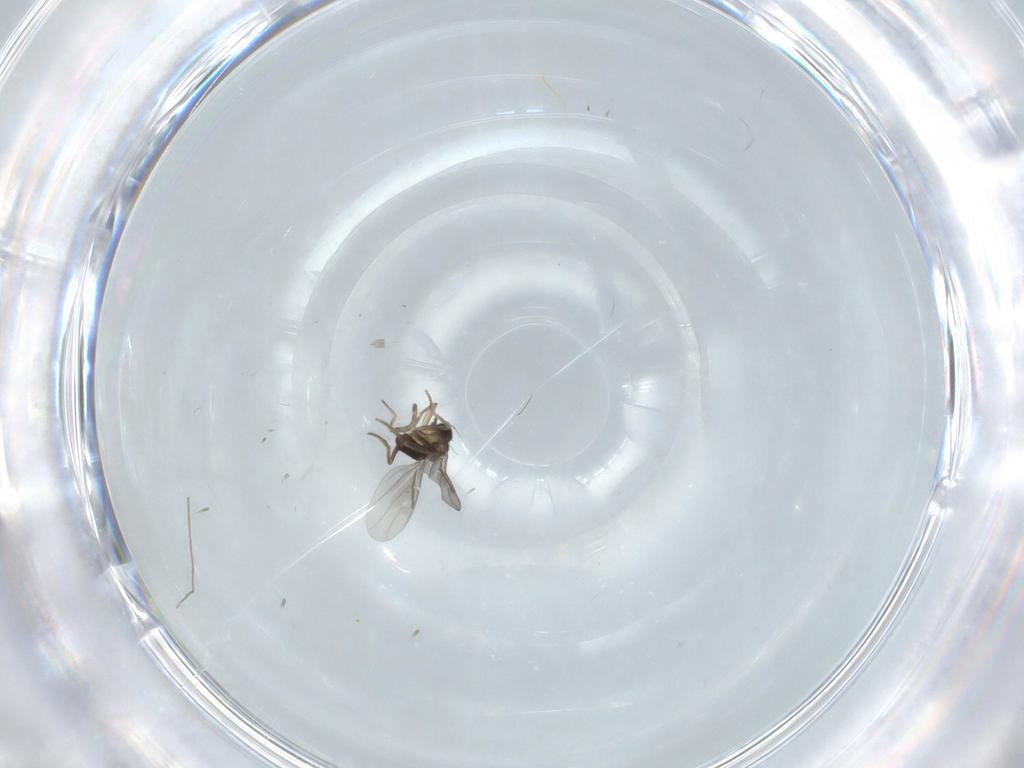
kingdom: Animalia
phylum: Arthropoda
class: Insecta
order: Diptera
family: Chironomidae
